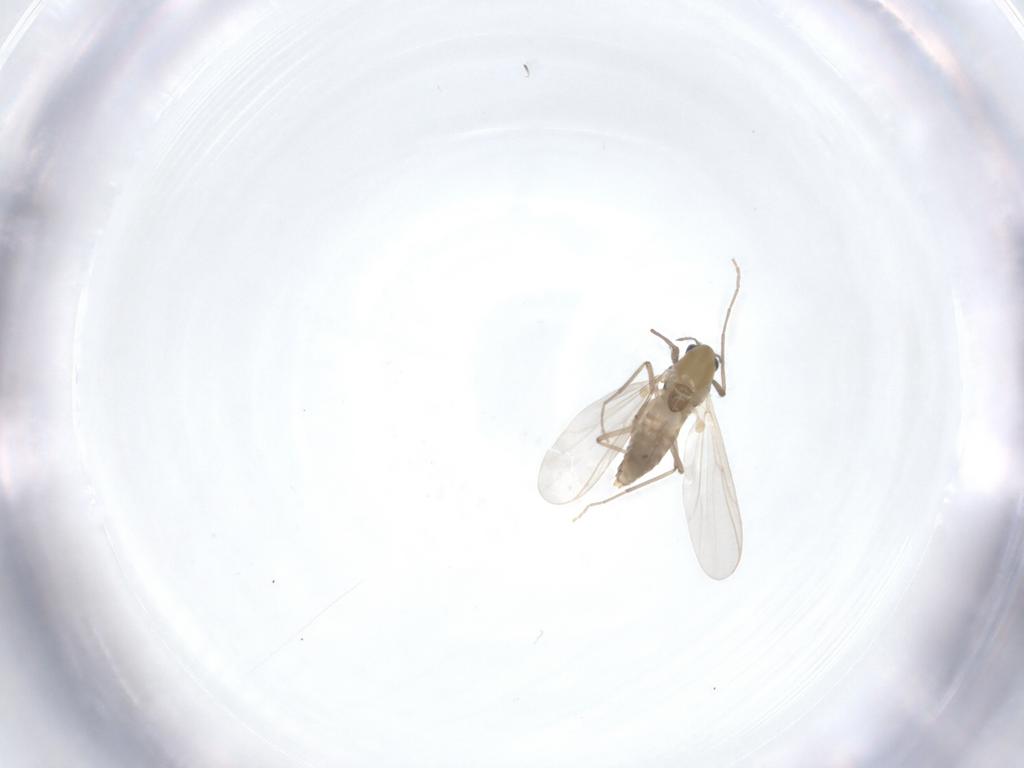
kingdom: Animalia
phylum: Arthropoda
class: Insecta
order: Diptera
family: Chironomidae
